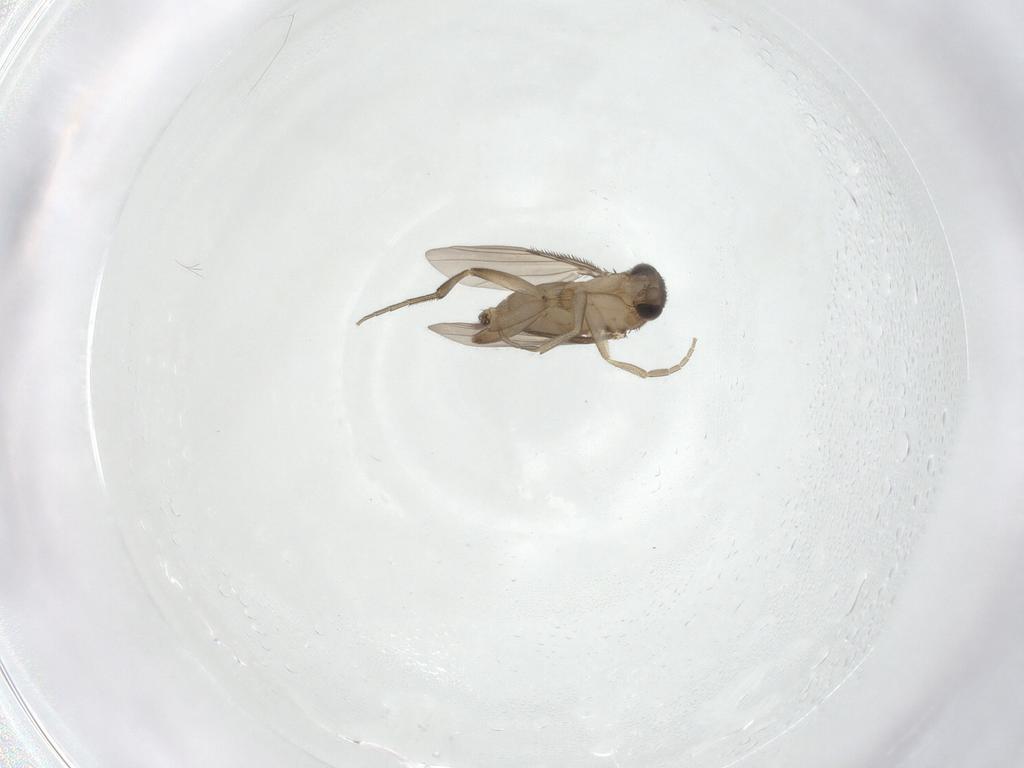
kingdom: Animalia
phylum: Arthropoda
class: Insecta
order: Diptera
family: Phoridae
